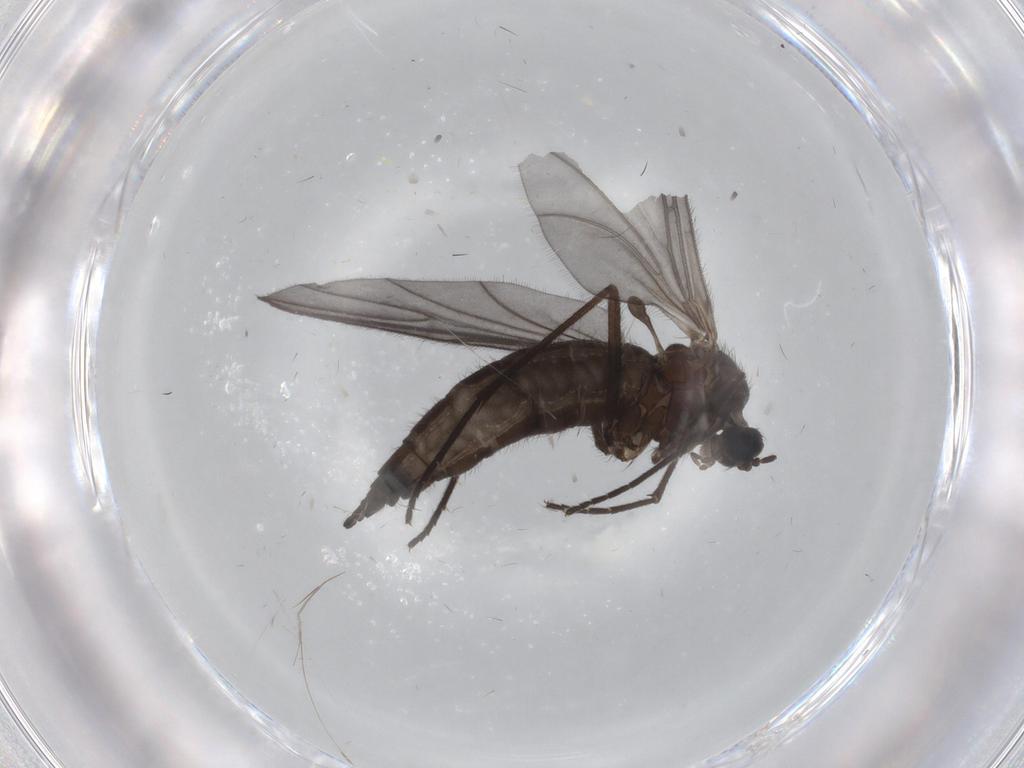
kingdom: Animalia
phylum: Arthropoda
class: Insecta
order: Diptera
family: Sciaridae
